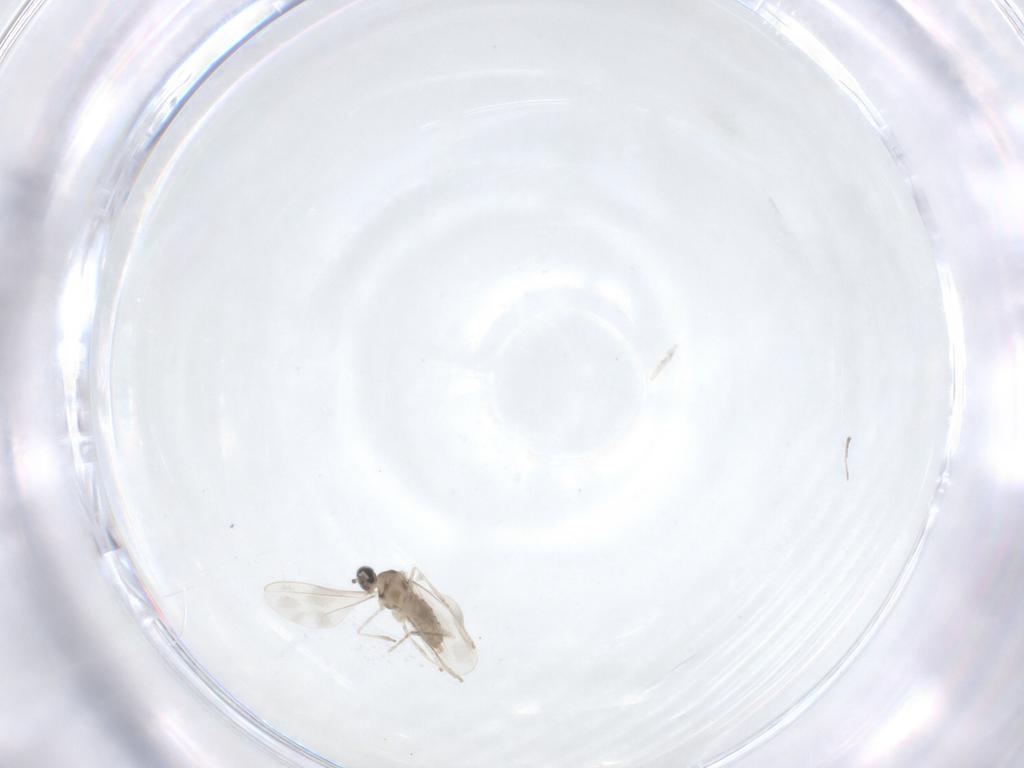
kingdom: Animalia
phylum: Arthropoda
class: Insecta
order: Diptera
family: Cecidomyiidae
